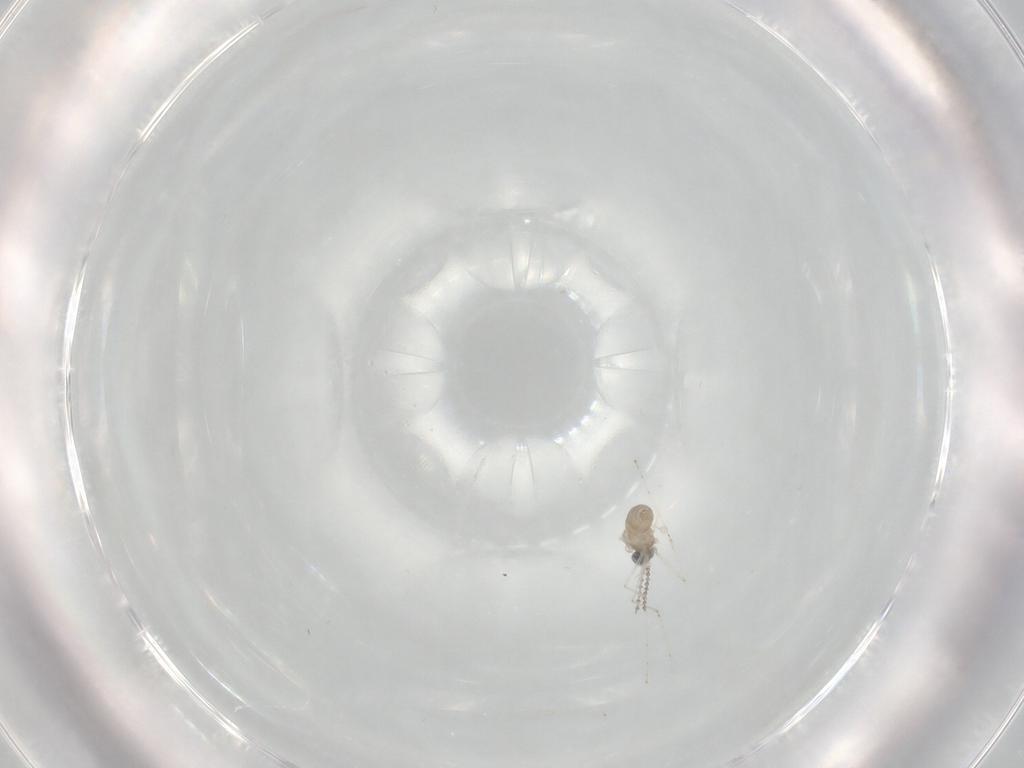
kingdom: Animalia
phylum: Arthropoda
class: Insecta
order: Diptera
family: Cecidomyiidae
